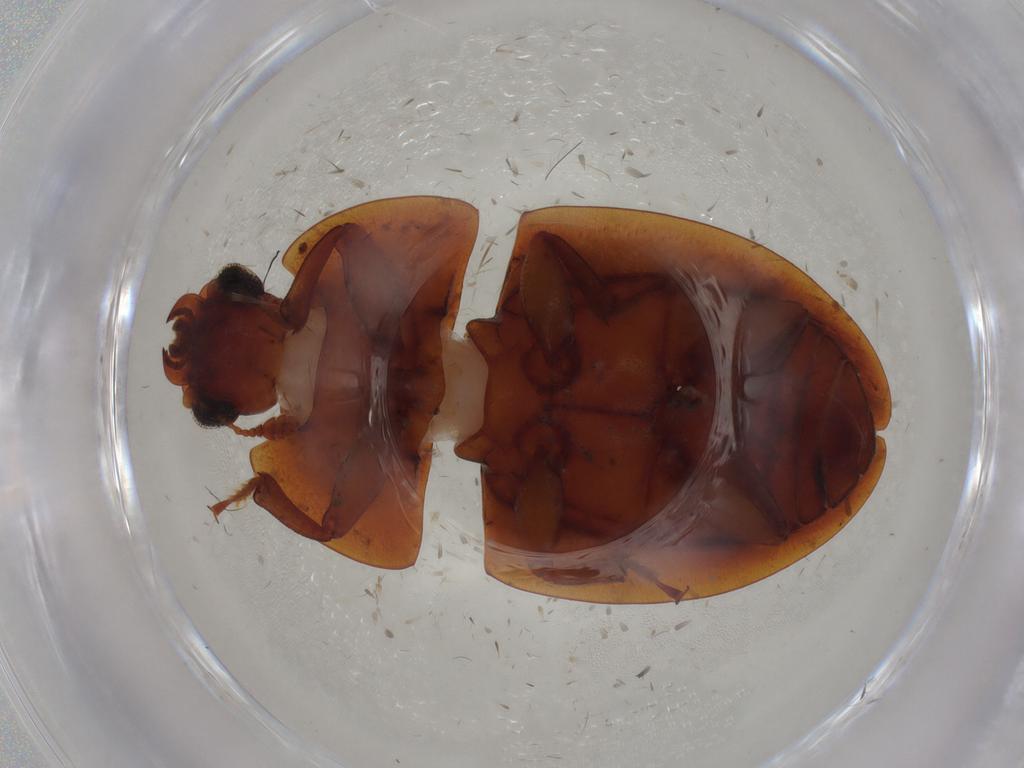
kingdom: Animalia
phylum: Arthropoda
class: Insecta
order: Coleoptera
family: Nitidulidae
